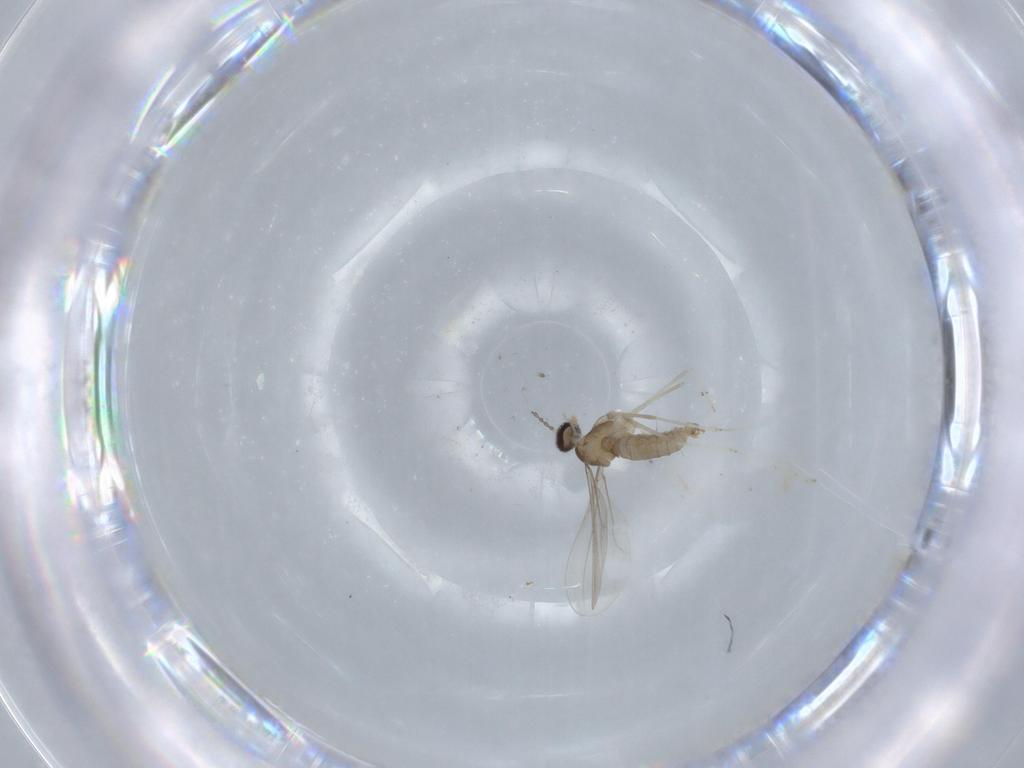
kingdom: Animalia
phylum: Arthropoda
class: Insecta
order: Diptera
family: Cecidomyiidae
